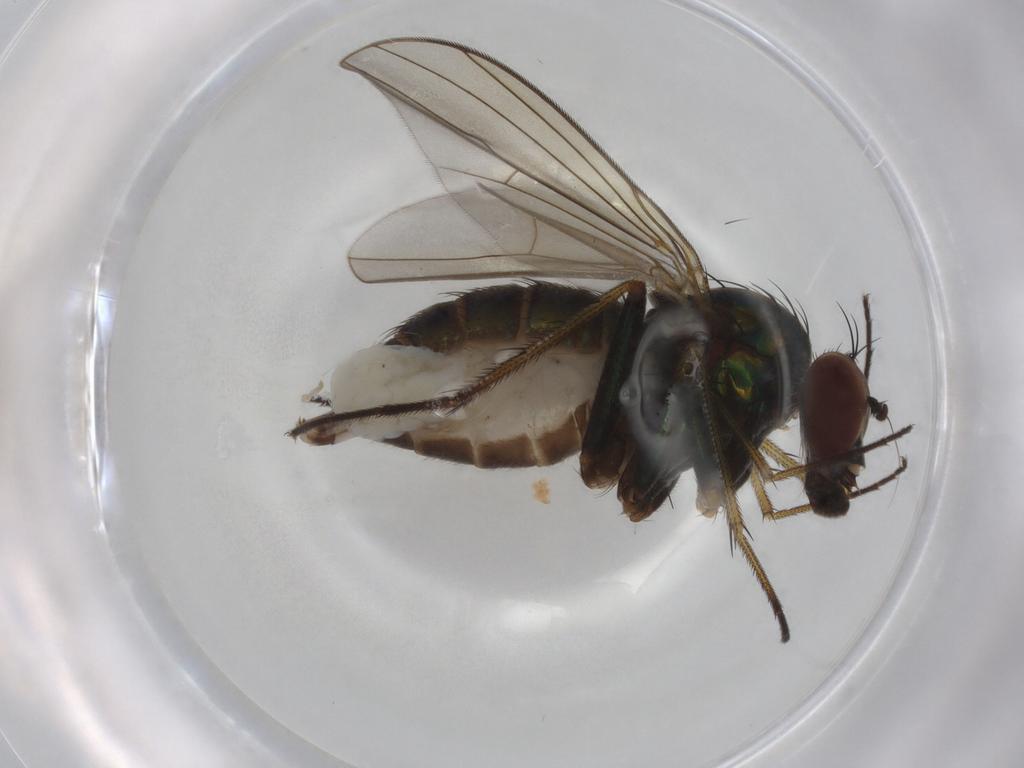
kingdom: Animalia
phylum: Arthropoda
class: Insecta
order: Diptera
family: Dolichopodidae
